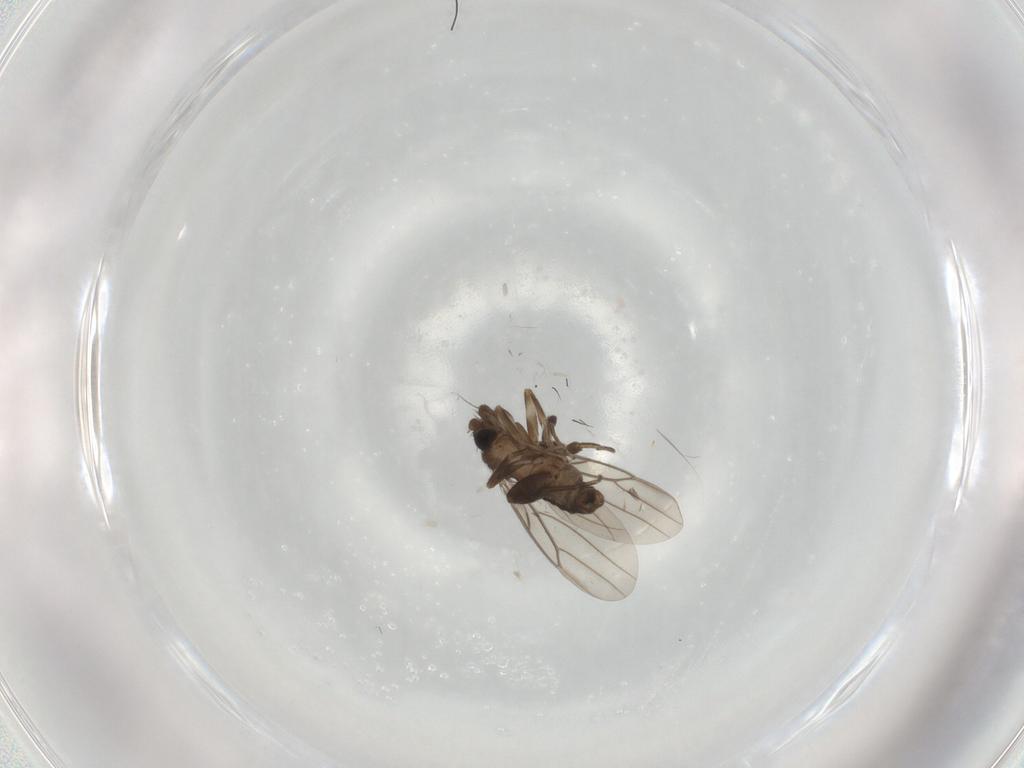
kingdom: Animalia
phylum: Arthropoda
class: Insecta
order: Diptera
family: Phoridae
